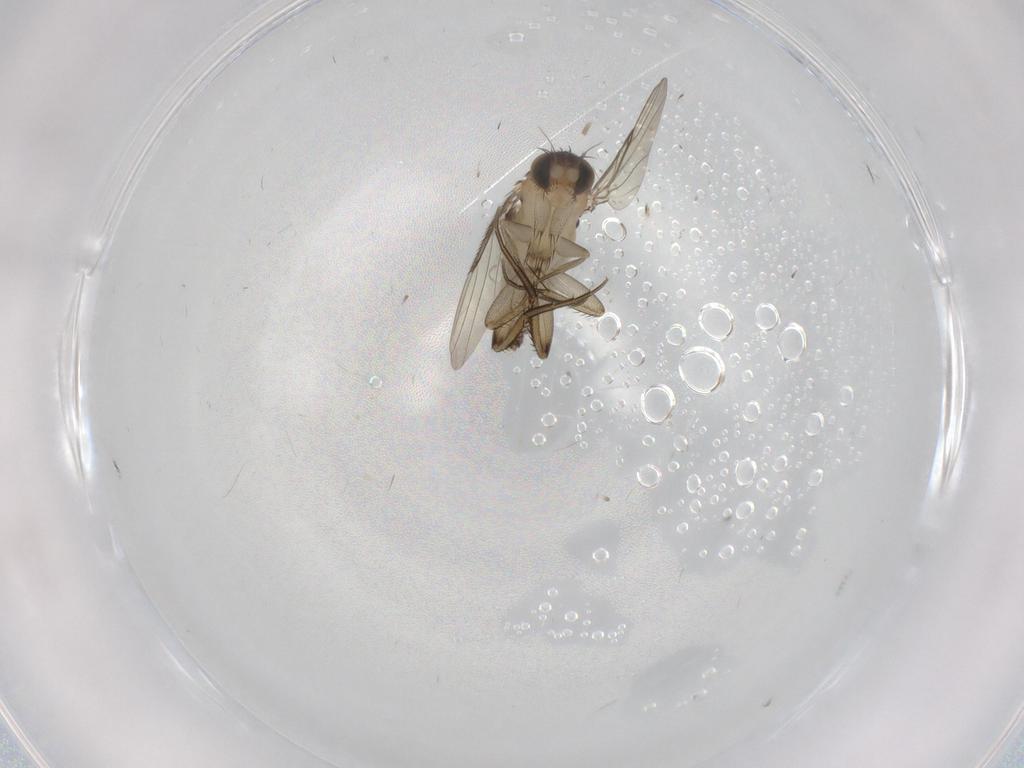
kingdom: Animalia
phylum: Arthropoda
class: Insecta
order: Diptera
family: Phoridae
